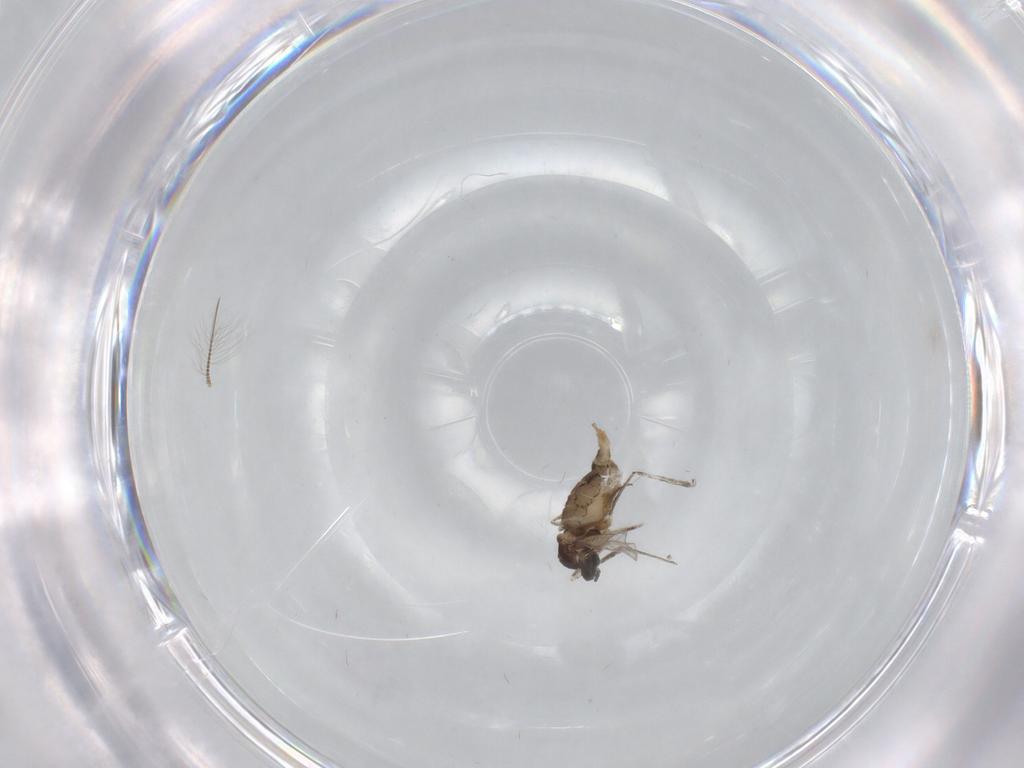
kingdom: Animalia
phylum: Arthropoda
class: Insecta
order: Diptera
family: Chironomidae
